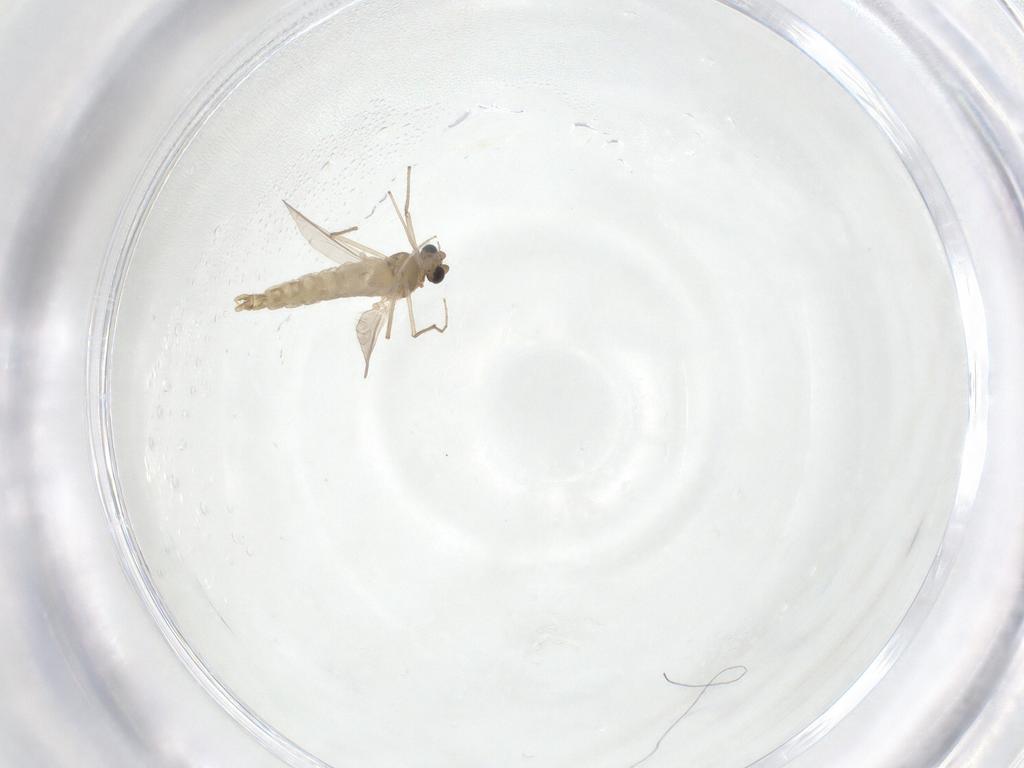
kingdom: Animalia
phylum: Arthropoda
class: Insecta
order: Diptera
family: Chironomidae
